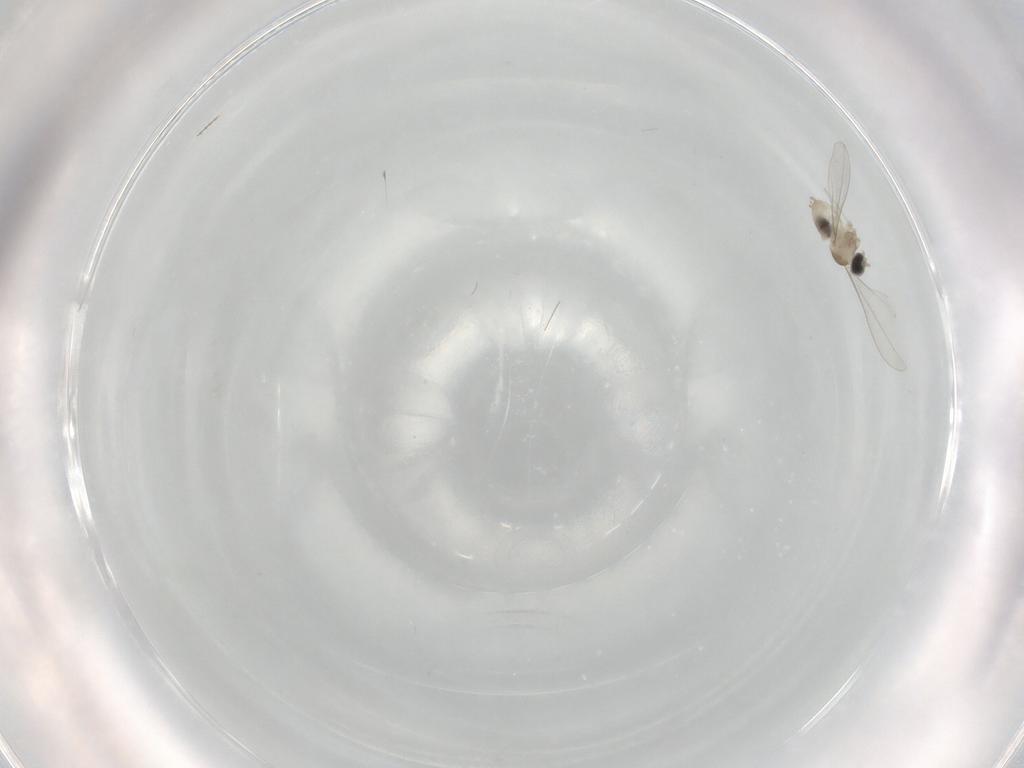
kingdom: Animalia
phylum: Arthropoda
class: Insecta
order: Diptera
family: Cecidomyiidae
